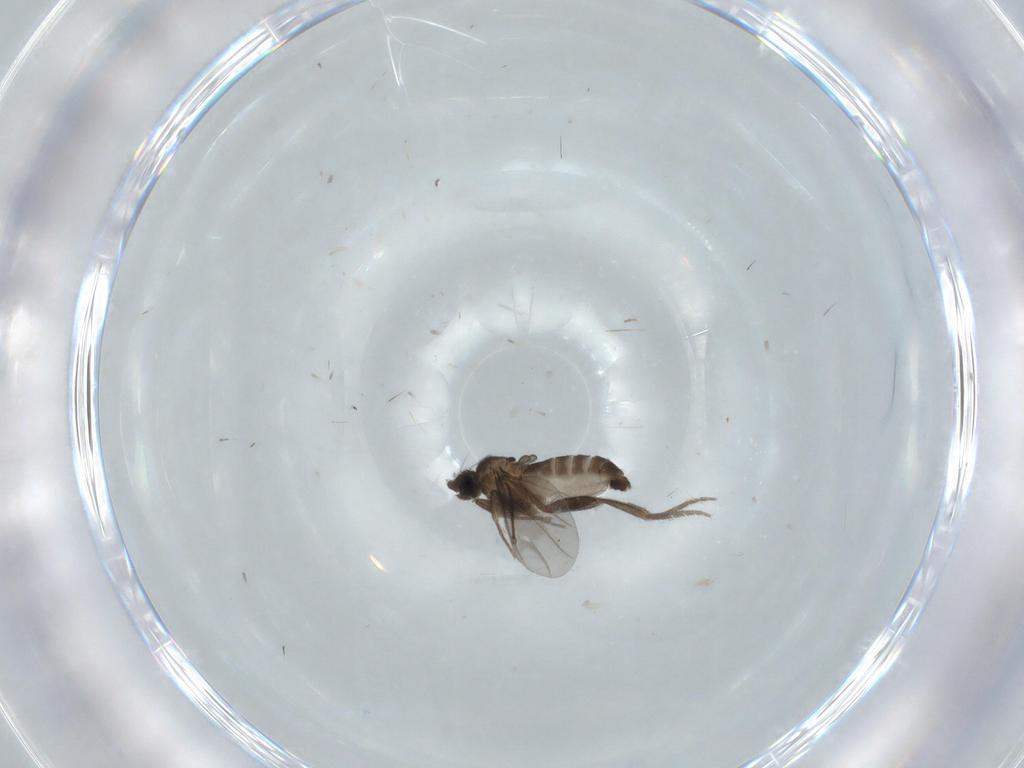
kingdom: Animalia
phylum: Arthropoda
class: Insecta
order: Diptera
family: Phoridae
